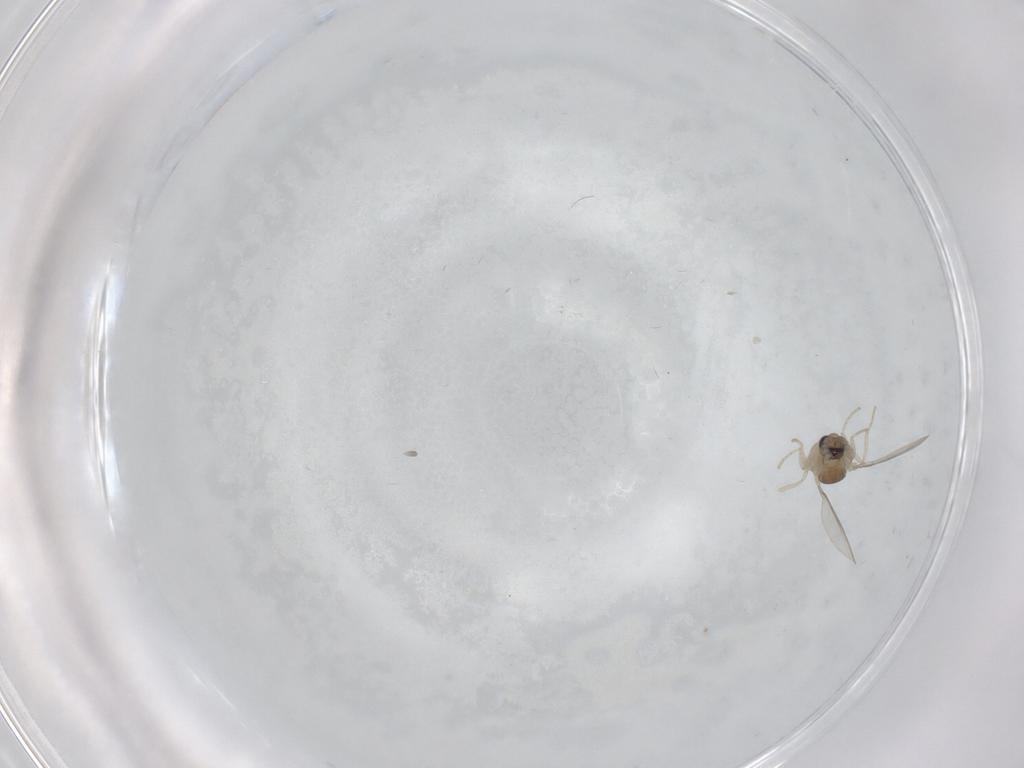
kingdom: Animalia
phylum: Arthropoda
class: Insecta
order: Diptera
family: Cecidomyiidae
